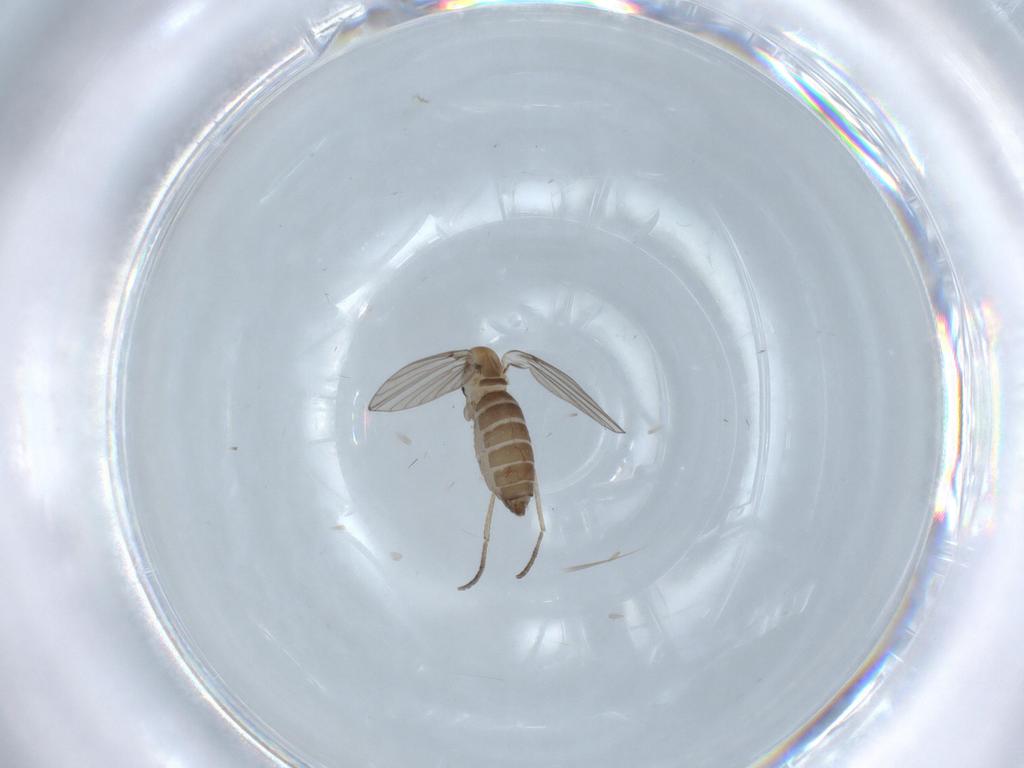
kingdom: Animalia
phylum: Arthropoda
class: Insecta
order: Diptera
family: Psychodidae
